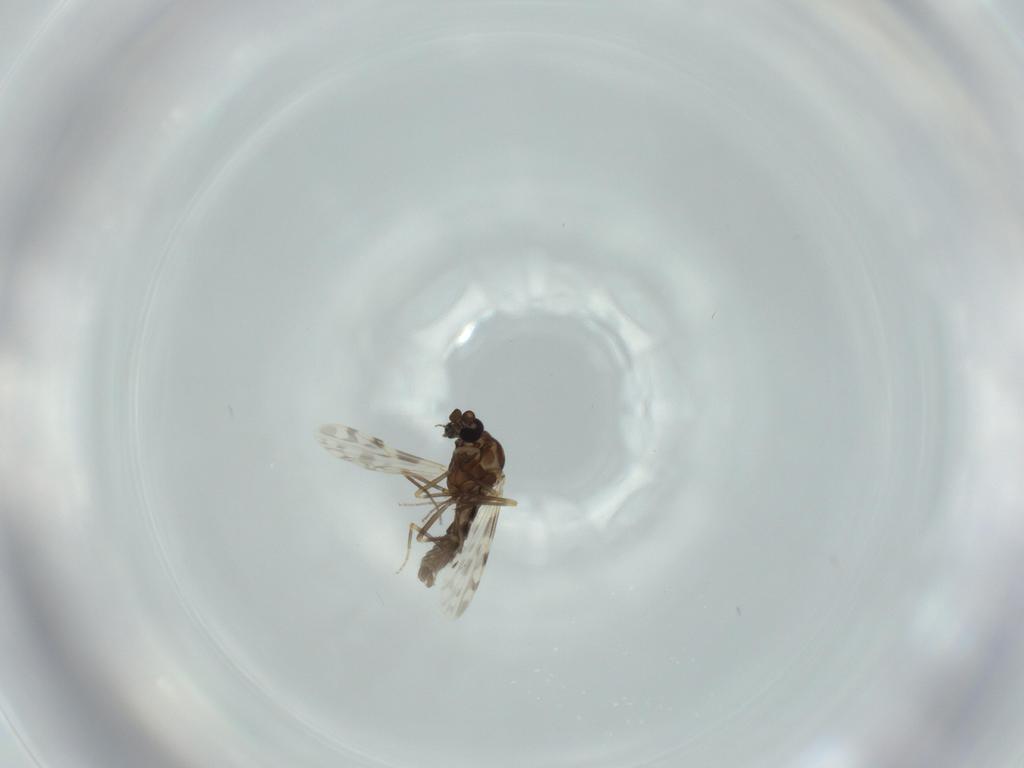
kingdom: Animalia
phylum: Arthropoda
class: Insecta
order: Diptera
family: Ceratopogonidae
